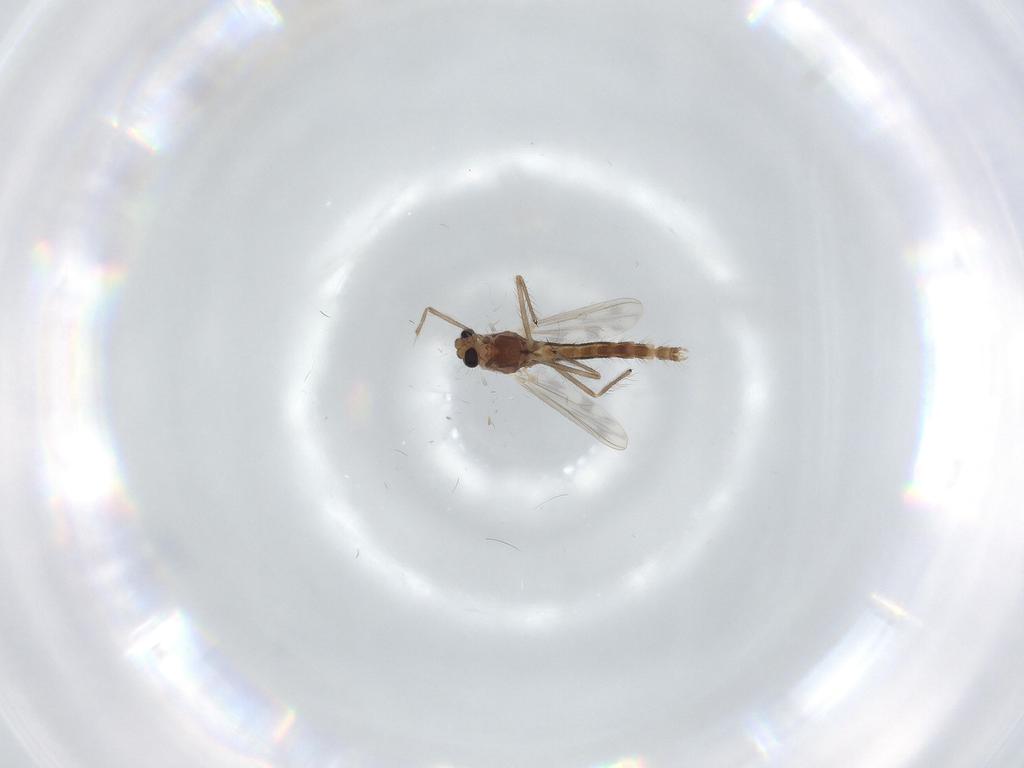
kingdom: Animalia
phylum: Arthropoda
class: Insecta
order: Diptera
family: Chironomidae
